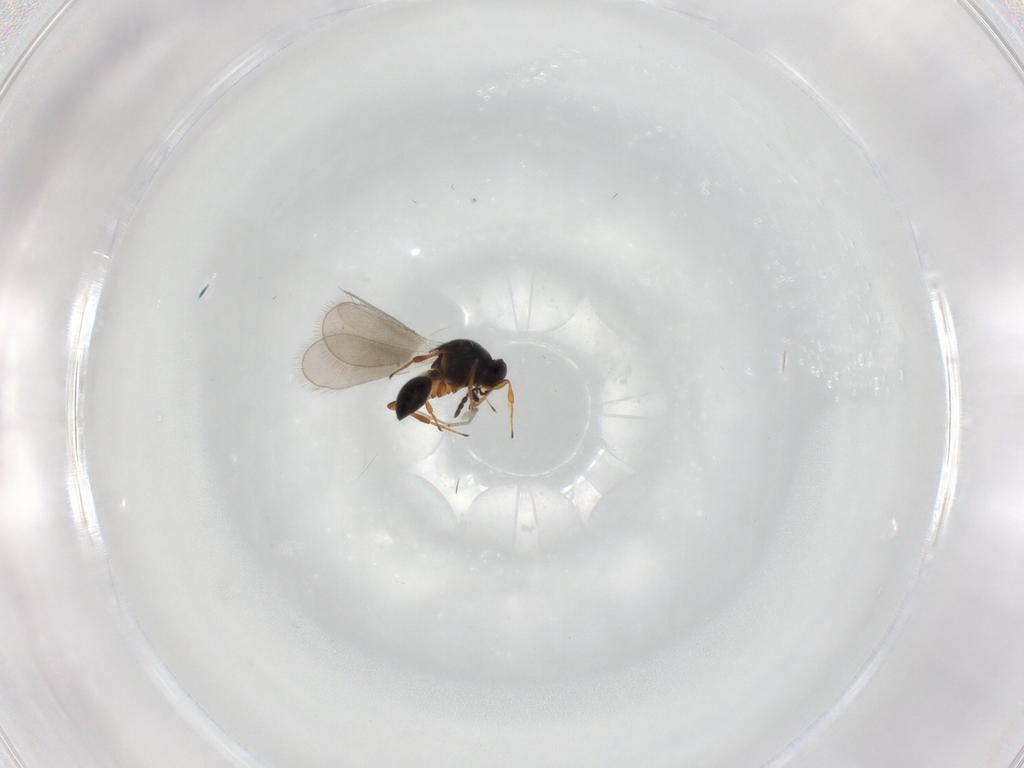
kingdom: Animalia
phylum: Arthropoda
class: Insecta
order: Hymenoptera
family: Platygastridae
